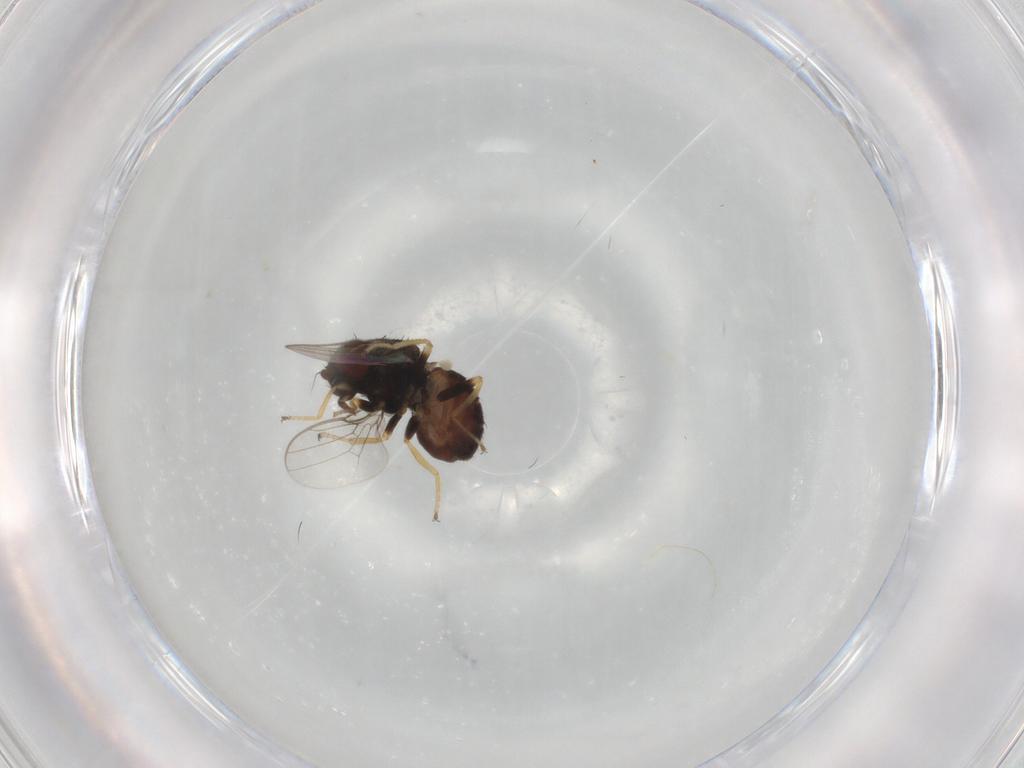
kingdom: Animalia
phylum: Arthropoda
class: Insecta
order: Diptera
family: Chloropidae
